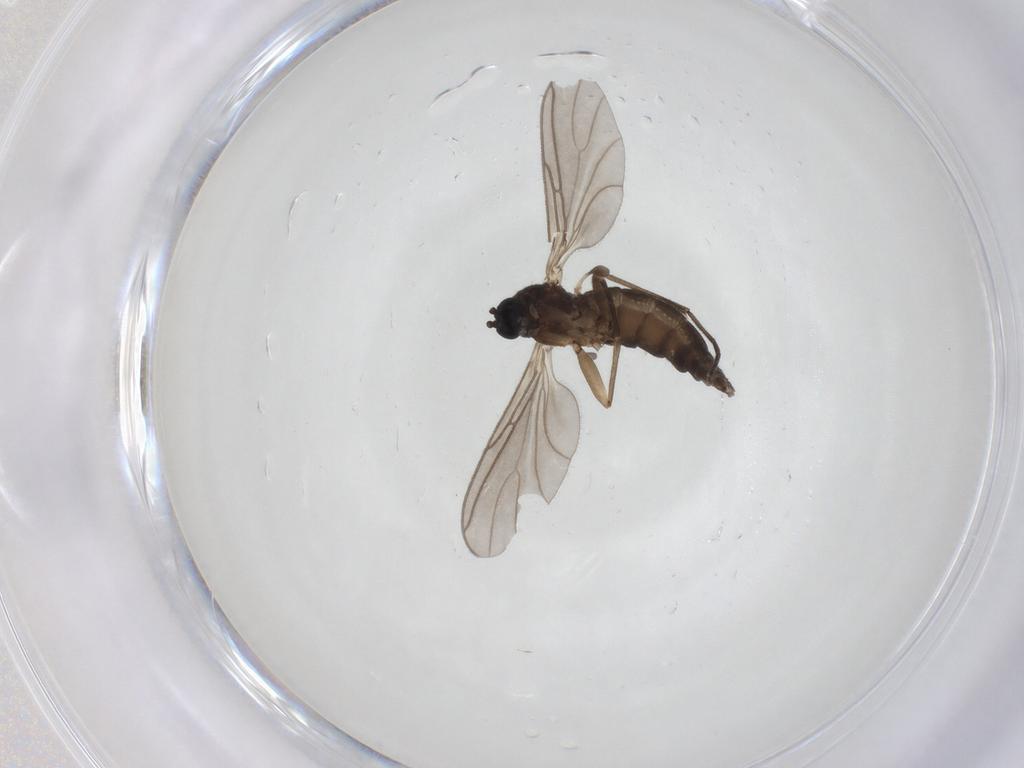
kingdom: Animalia
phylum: Arthropoda
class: Insecta
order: Diptera
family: Sciaridae
